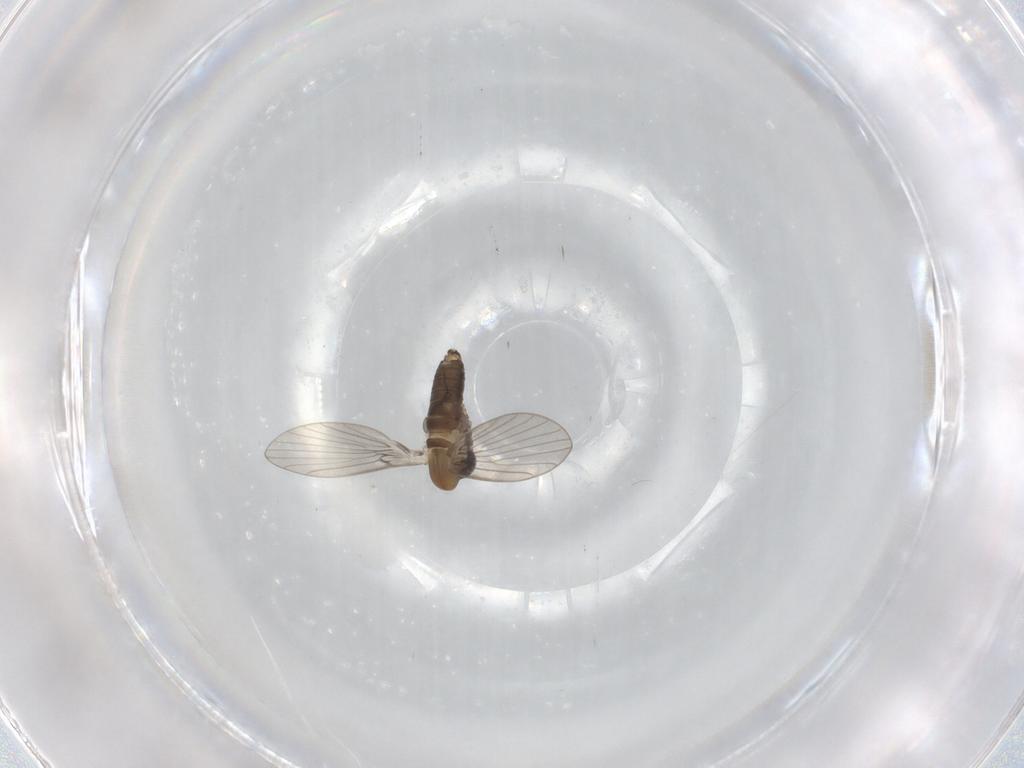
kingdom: Animalia
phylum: Arthropoda
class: Insecta
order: Diptera
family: Psychodidae
